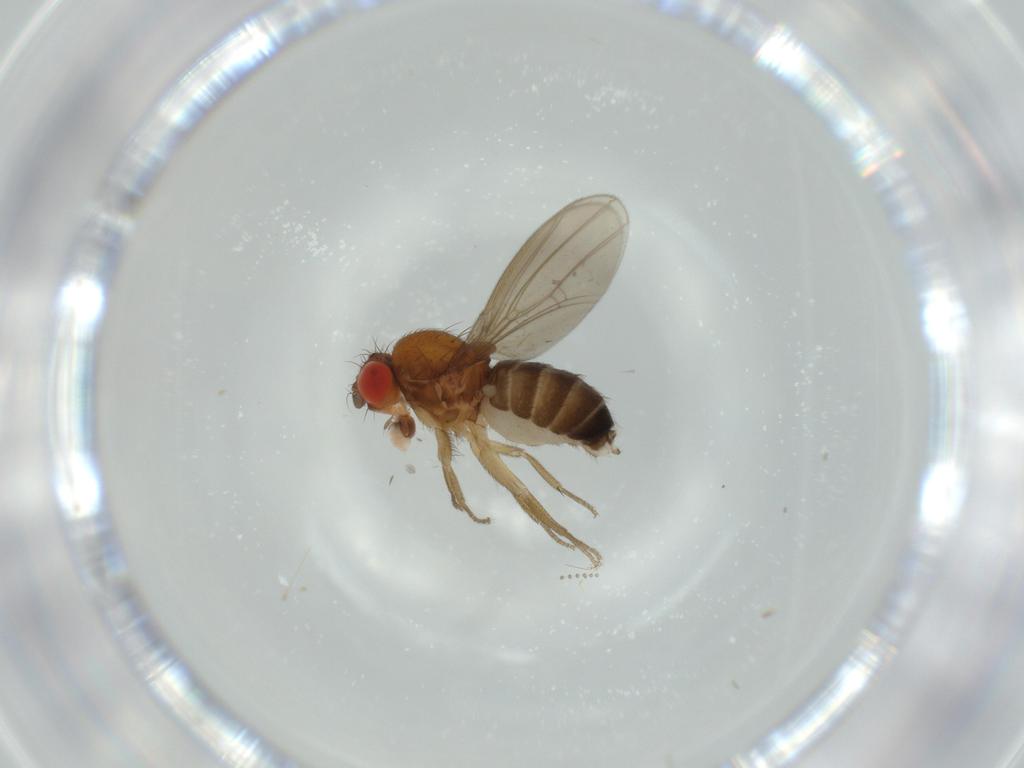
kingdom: Animalia
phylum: Arthropoda
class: Insecta
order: Diptera
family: Drosophilidae
